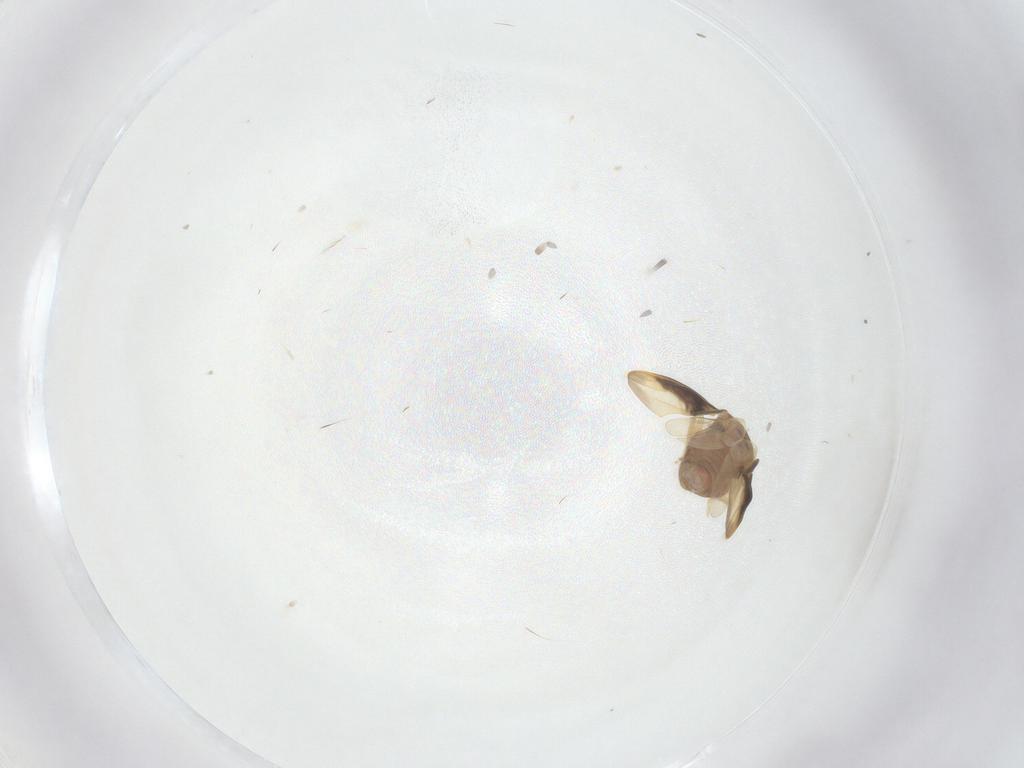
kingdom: Animalia
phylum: Arthropoda
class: Insecta
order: Hemiptera
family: Schizopteridae
